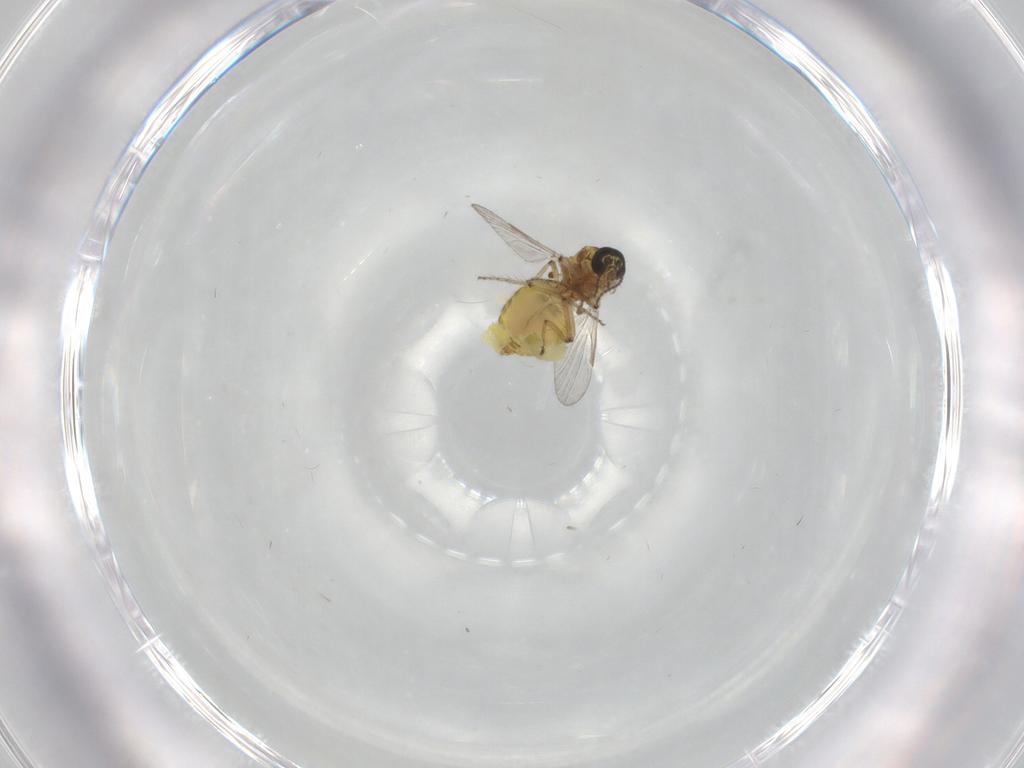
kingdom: Animalia
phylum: Arthropoda
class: Insecta
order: Diptera
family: Ceratopogonidae
